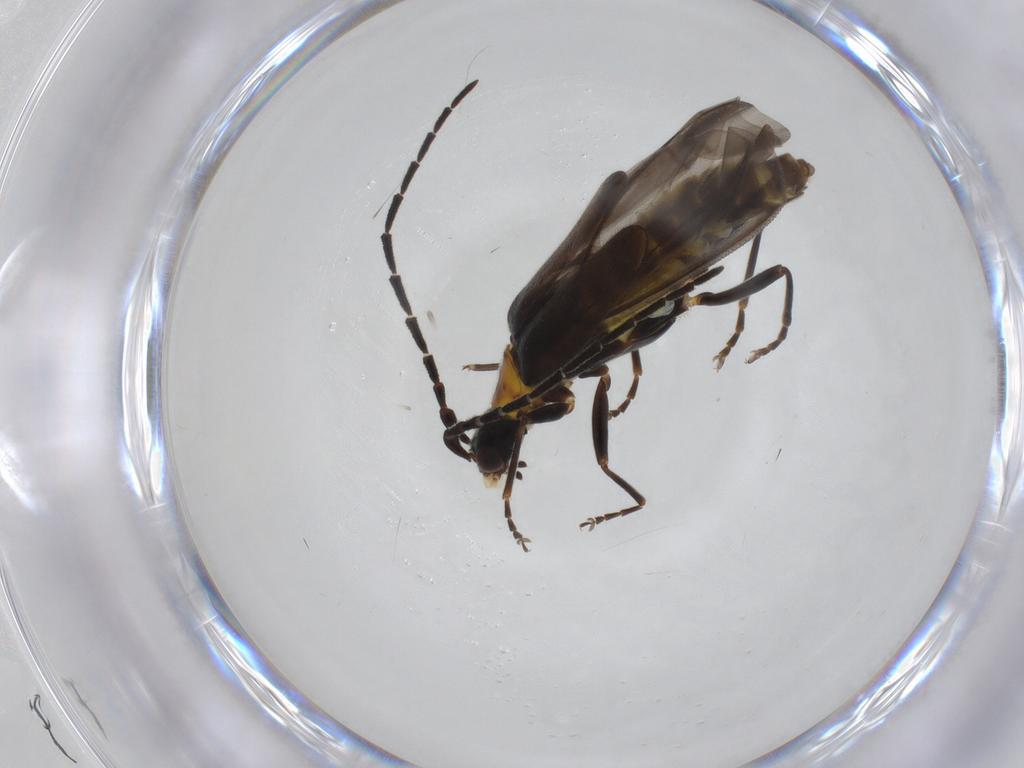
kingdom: Animalia
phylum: Arthropoda
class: Insecta
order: Coleoptera
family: Cantharidae
